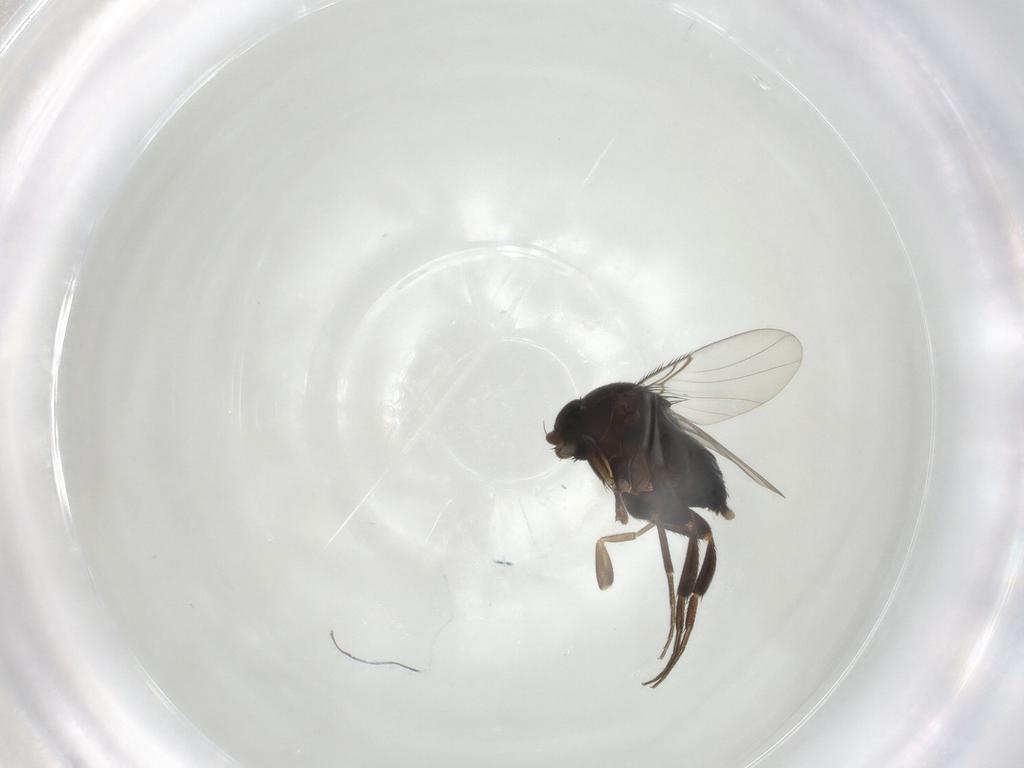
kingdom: Animalia
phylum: Arthropoda
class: Insecta
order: Diptera
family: Phoridae
